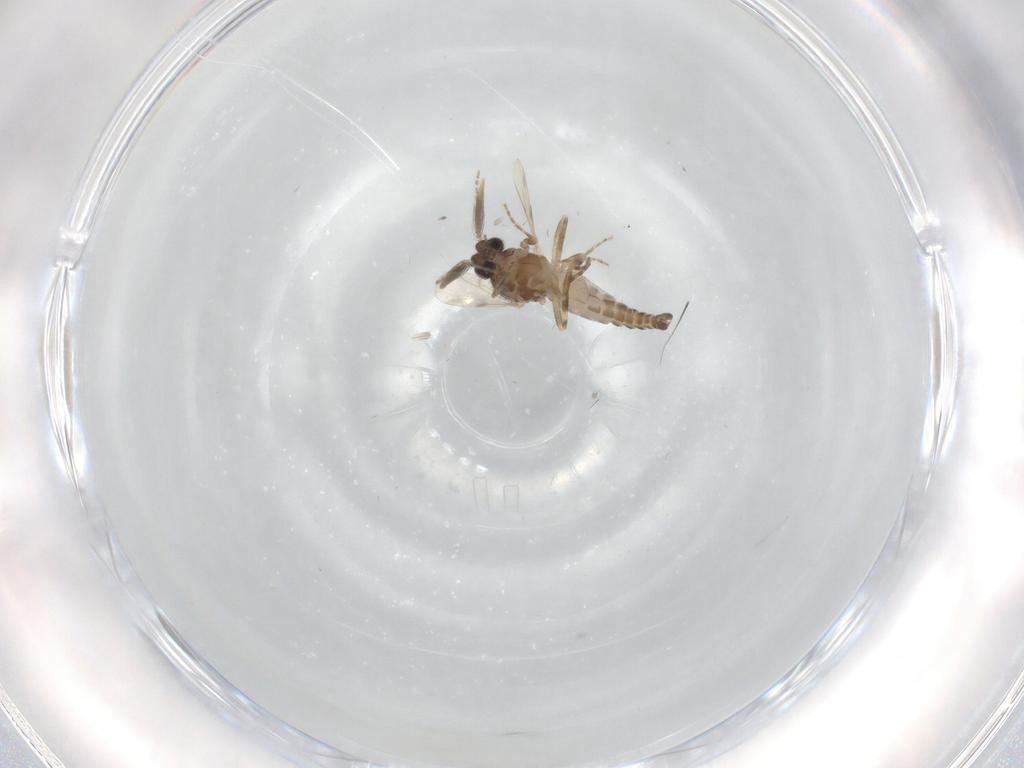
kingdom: Animalia
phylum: Arthropoda
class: Insecta
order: Diptera
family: Ceratopogonidae
